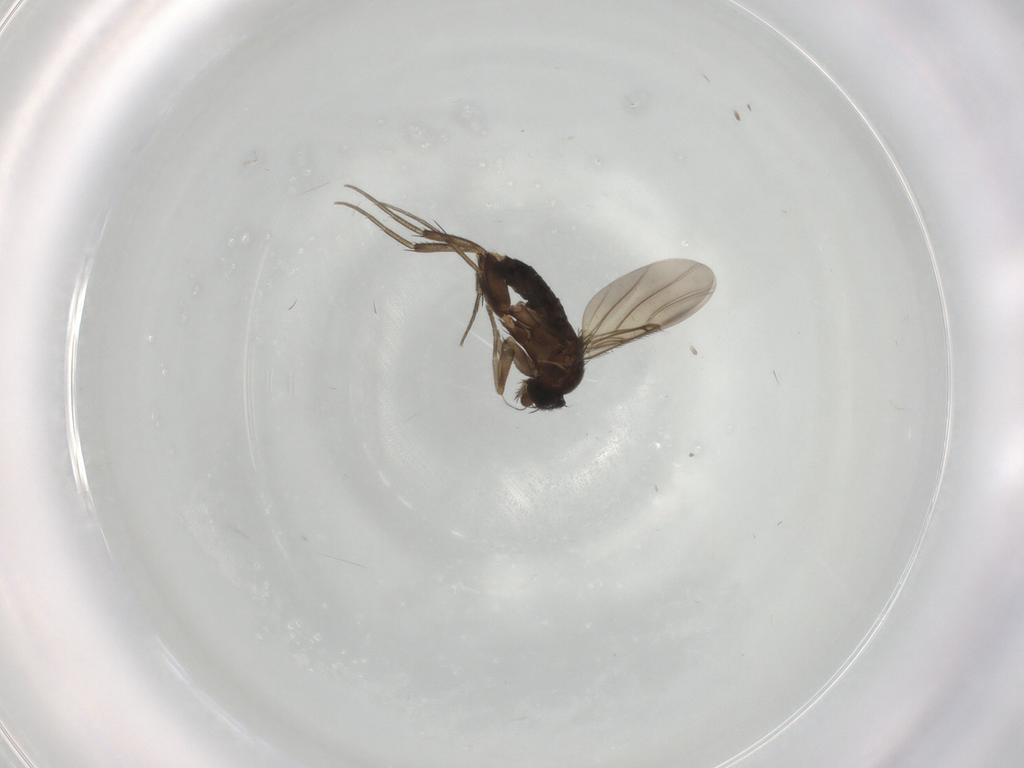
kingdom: Animalia
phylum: Arthropoda
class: Insecta
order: Diptera
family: Phoridae
